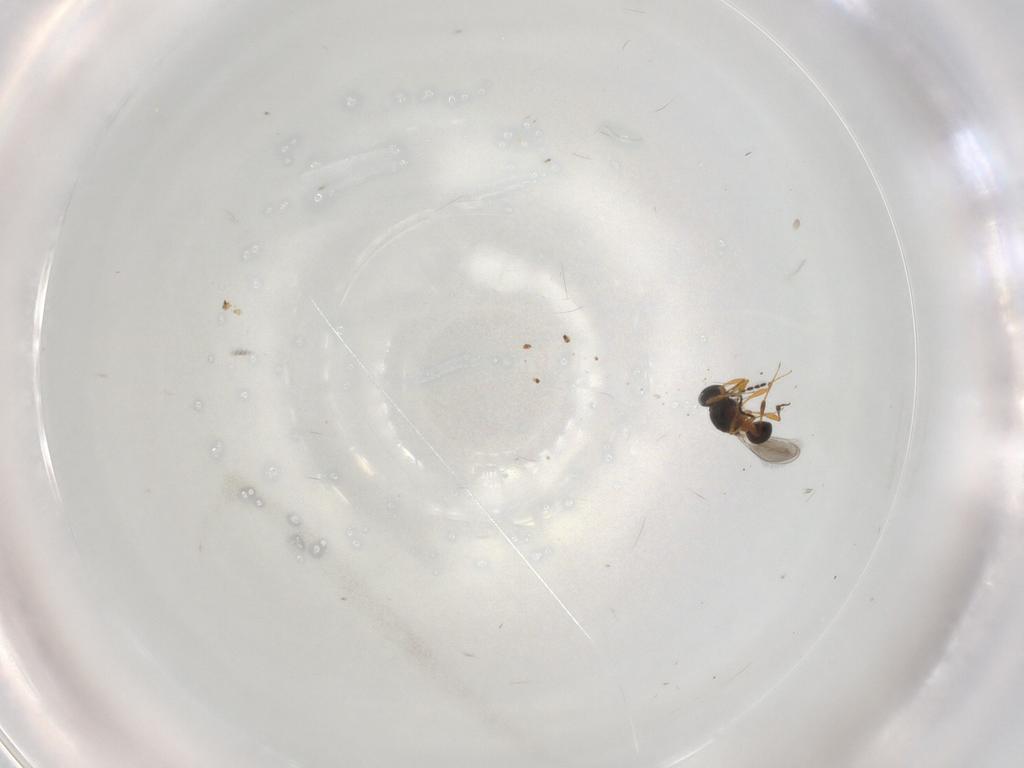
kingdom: Animalia
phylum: Arthropoda
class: Insecta
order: Hymenoptera
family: Platygastridae
